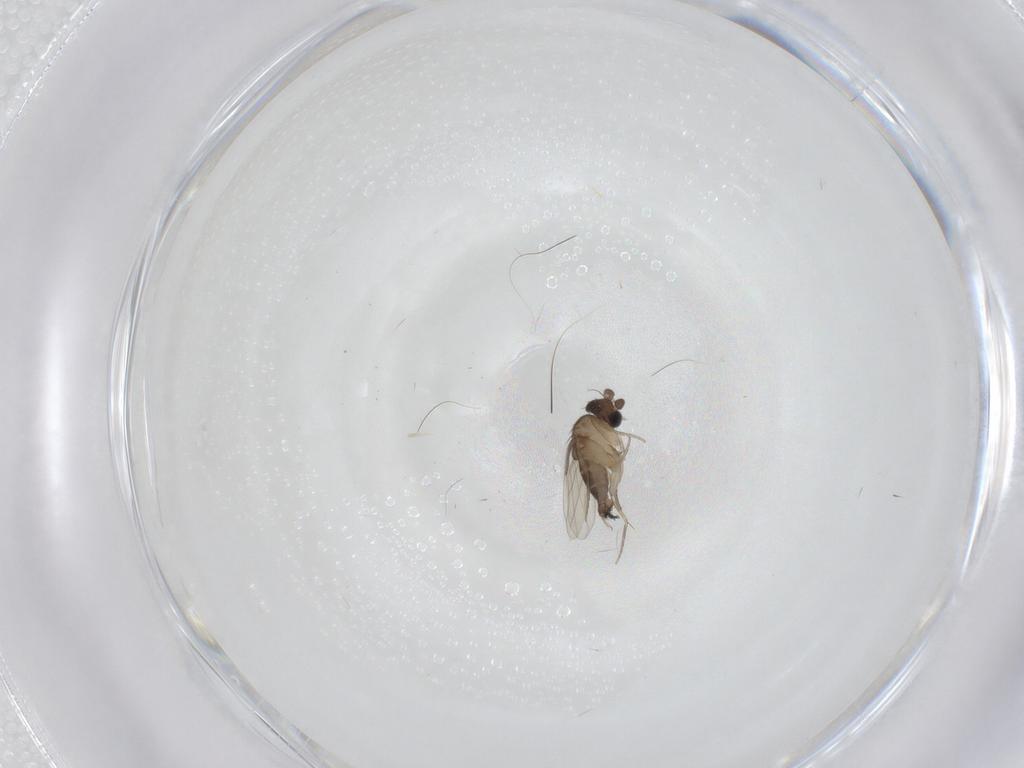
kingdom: Animalia
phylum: Arthropoda
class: Insecta
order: Diptera
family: Phoridae
